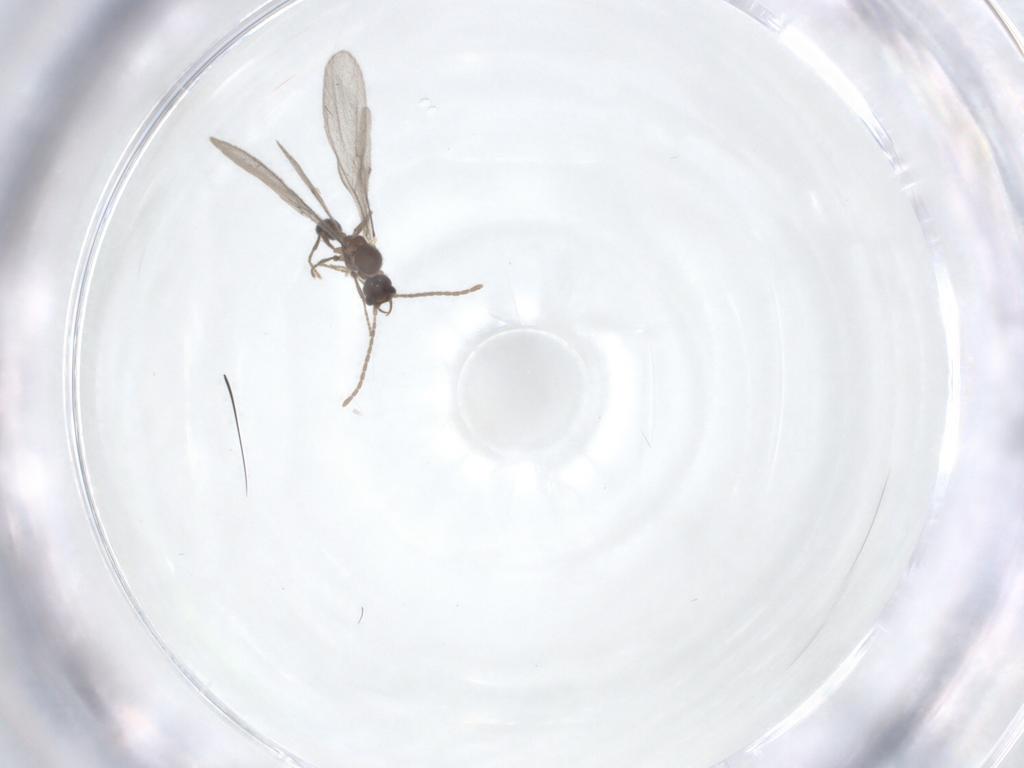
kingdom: Animalia
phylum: Arthropoda
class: Insecta
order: Hymenoptera
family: Formicidae
